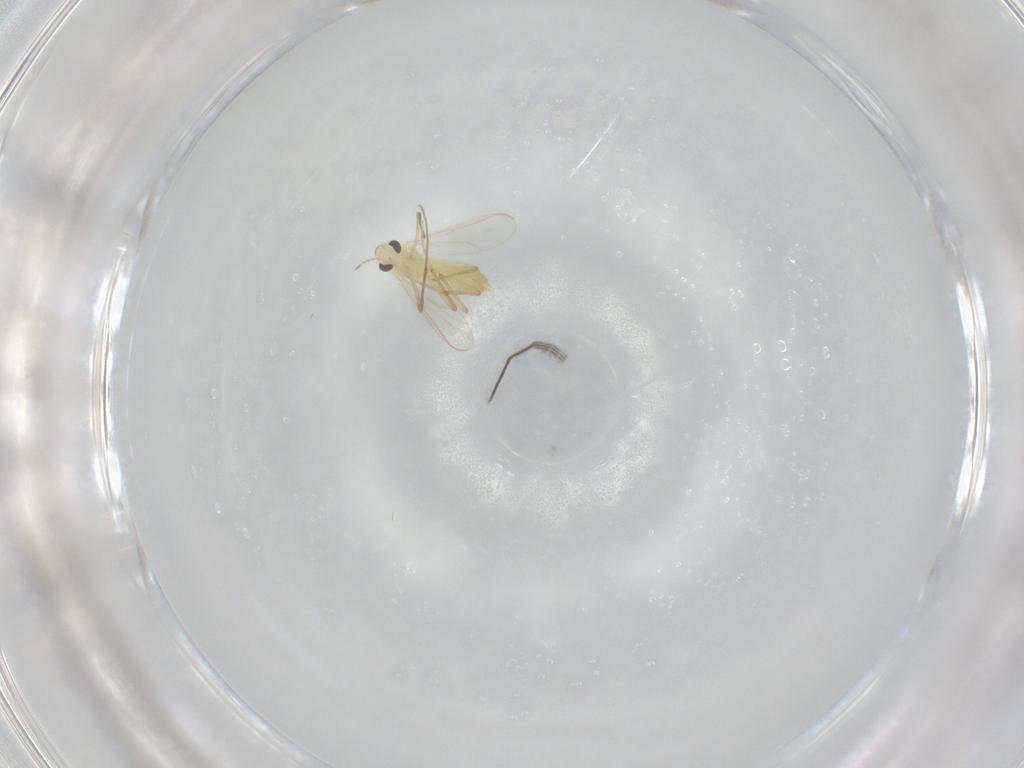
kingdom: Animalia
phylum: Arthropoda
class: Insecta
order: Diptera
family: Chironomidae
